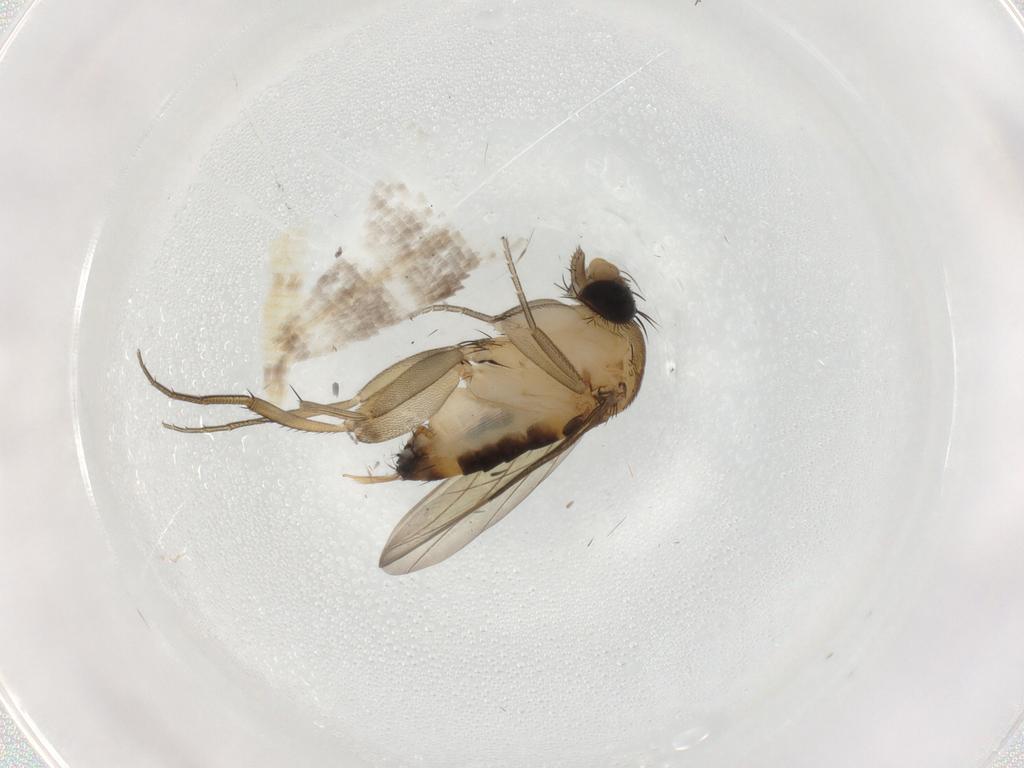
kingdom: Animalia
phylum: Arthropoda
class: Insecta
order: Diptera
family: Phoridae
